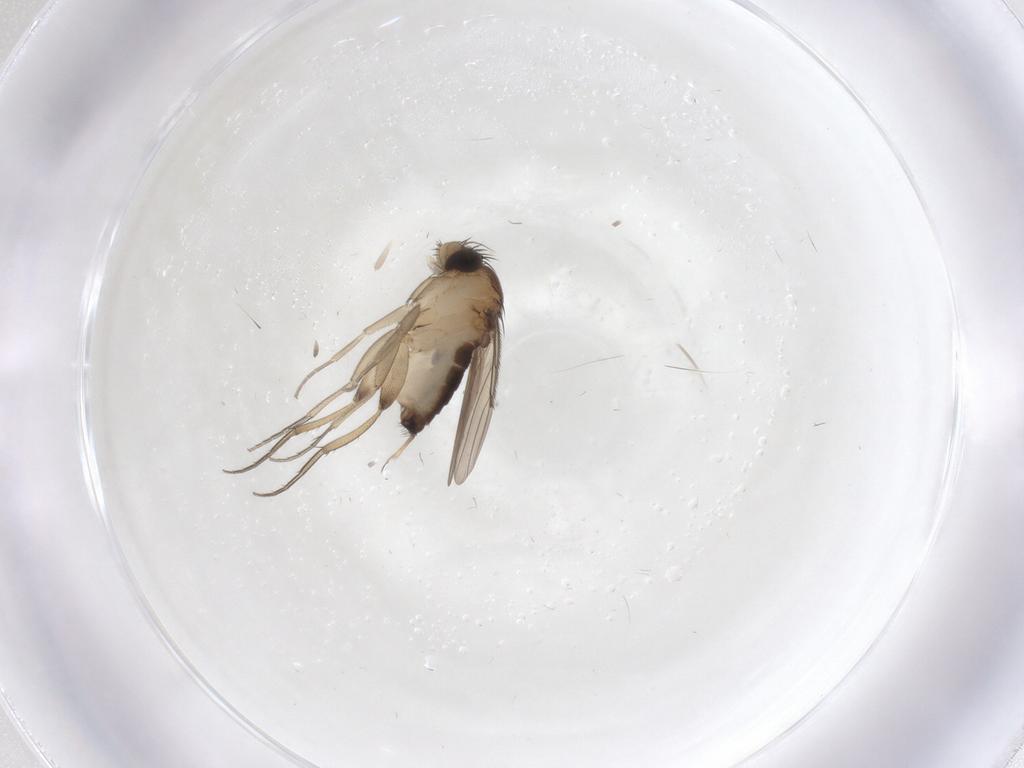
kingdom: Animalia
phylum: Arthropoda
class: Insecta
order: Diptera
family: Phoridae
